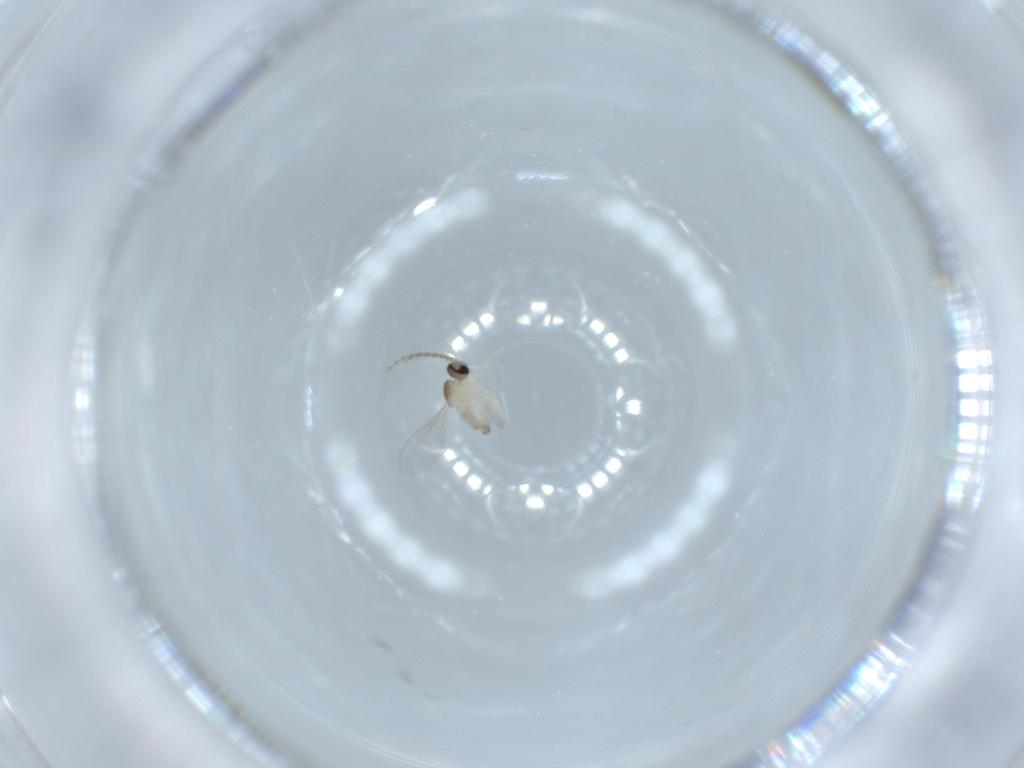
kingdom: Animalia
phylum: Arthropoda
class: Insecta
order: Diptera
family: Cecidomyiidae
